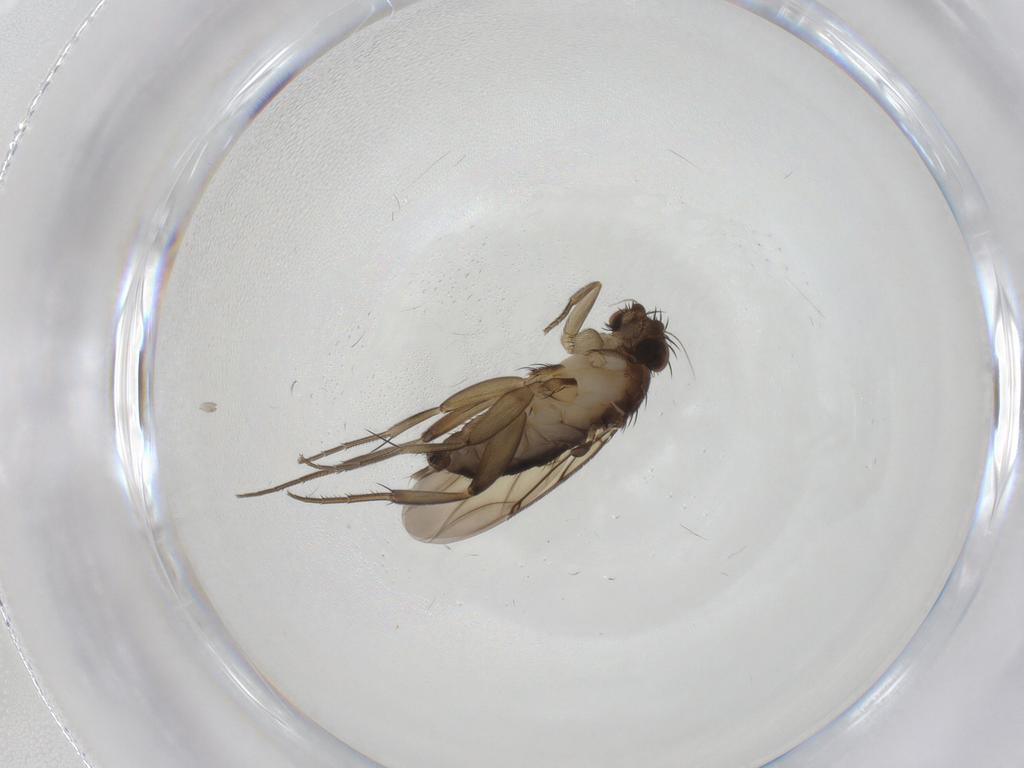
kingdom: Animalia
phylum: Arthropoda
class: Insecta
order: Diptera
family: Phoridae
